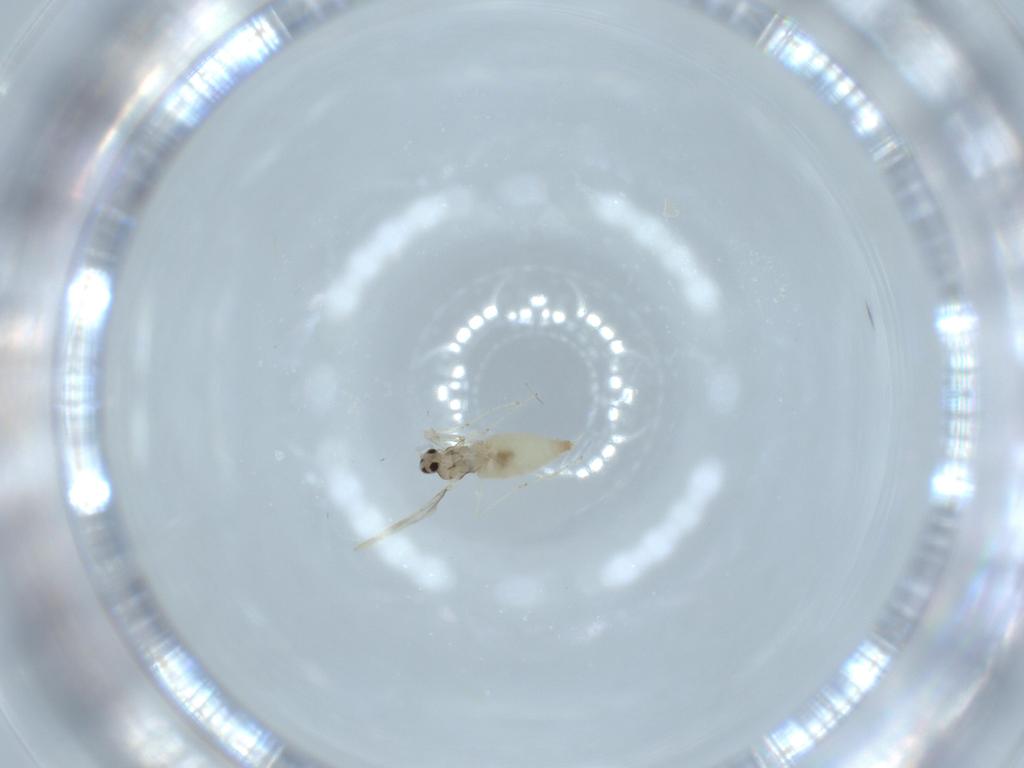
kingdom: Animalia
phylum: Arthropoda
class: Insecta
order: Diptera
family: Cecidomyiidae
